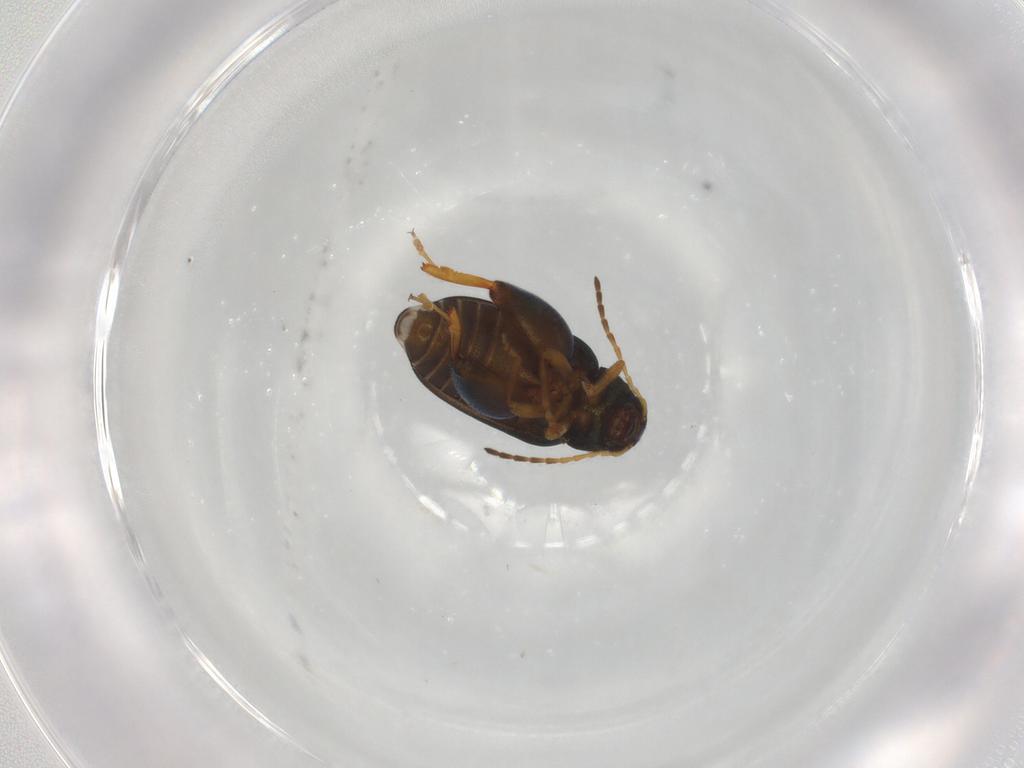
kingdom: Animalia
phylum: Arthropoda
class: Insecta
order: Coleoptera
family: Chrysomelidae
